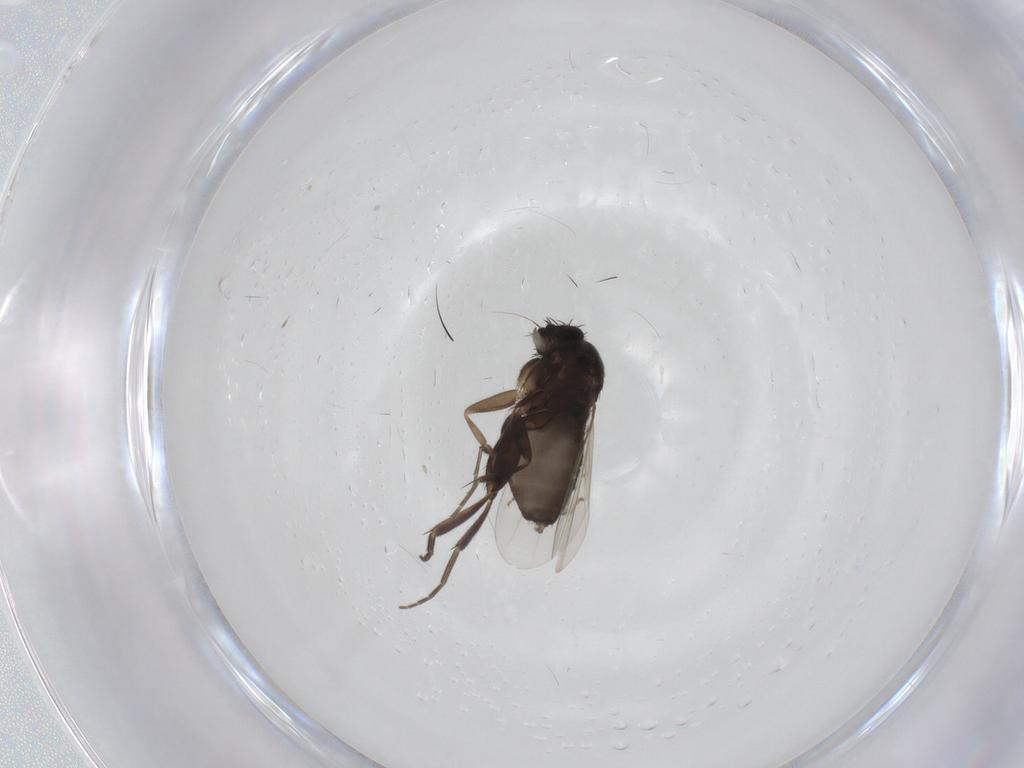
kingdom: Animalia
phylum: Arthropoda
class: Insecta
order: Diptera
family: Phoridae
